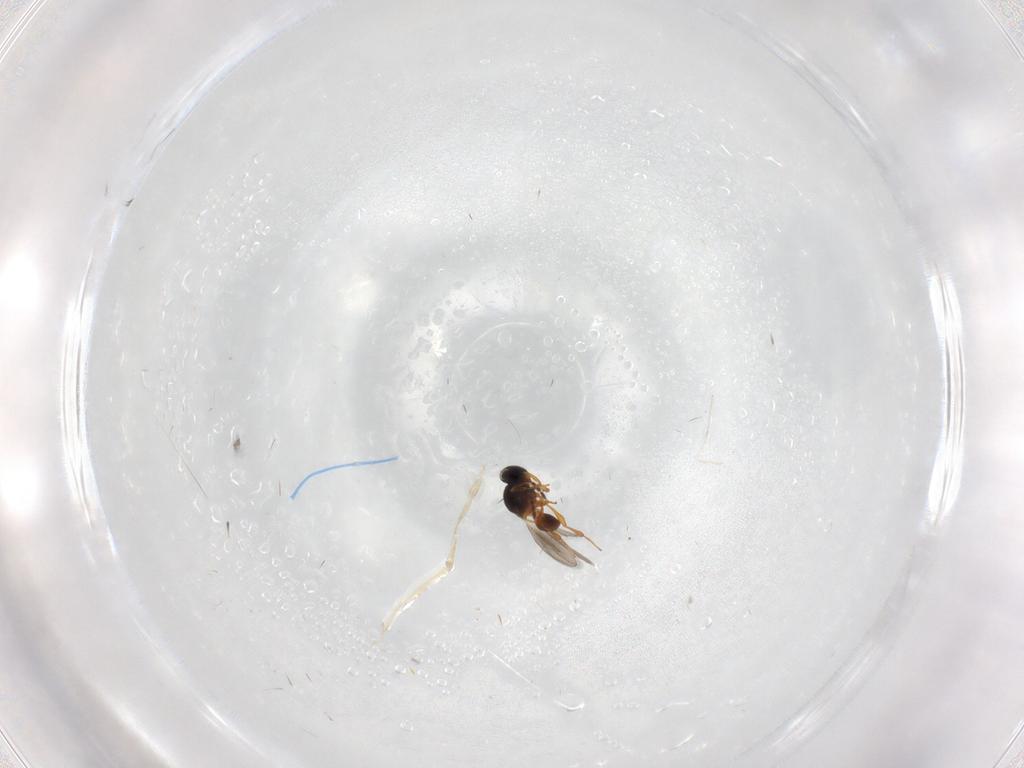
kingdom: Animalia
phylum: Arthropoda
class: Insecta
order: Hymenoptera
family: Platygastridae
